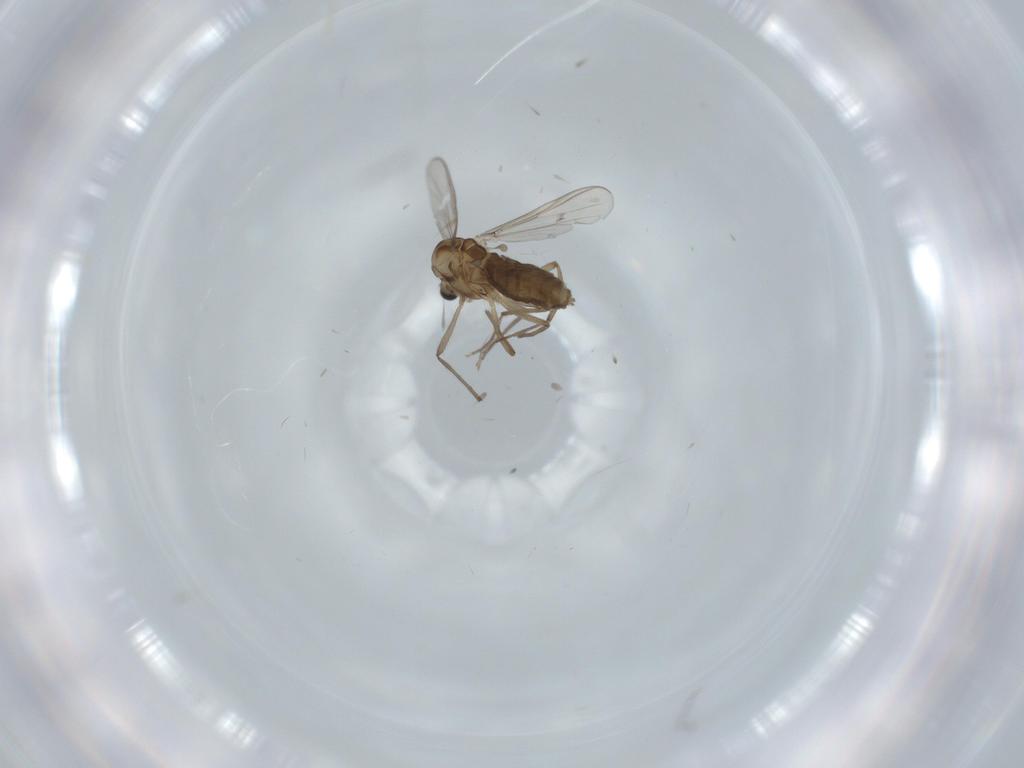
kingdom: Animalia
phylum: Arthropoda
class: Insecta
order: Diptera
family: Chironomidae
